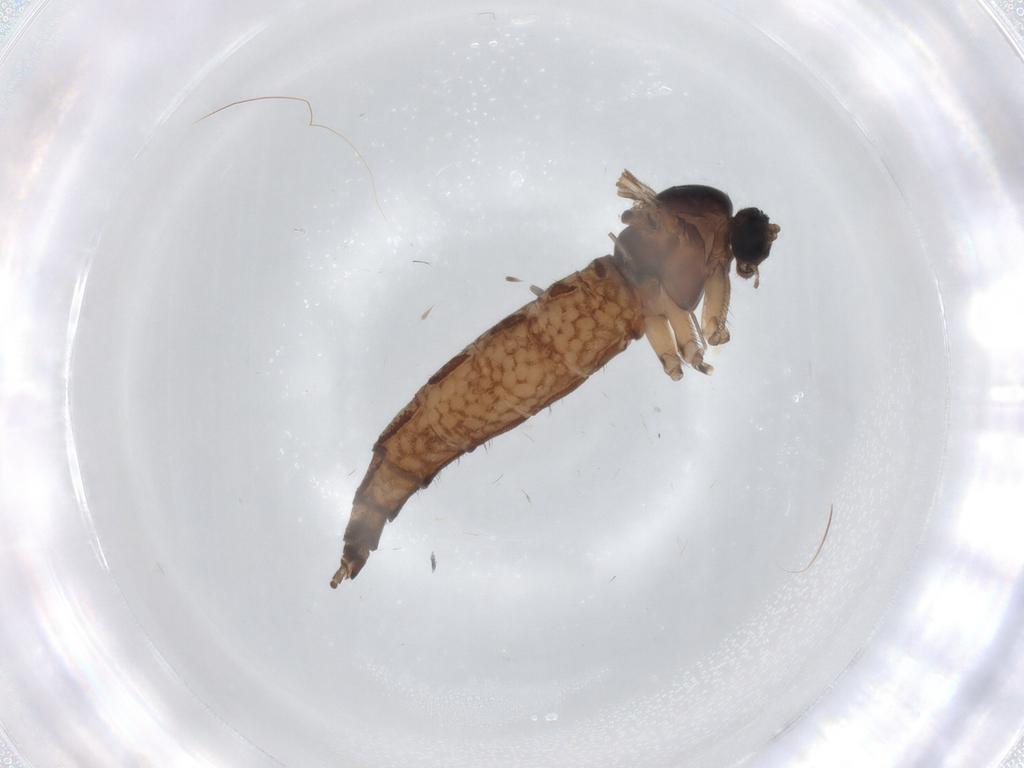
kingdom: Animalia
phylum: Arthropoda
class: Insecta
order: Diptera
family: Sciaridae
